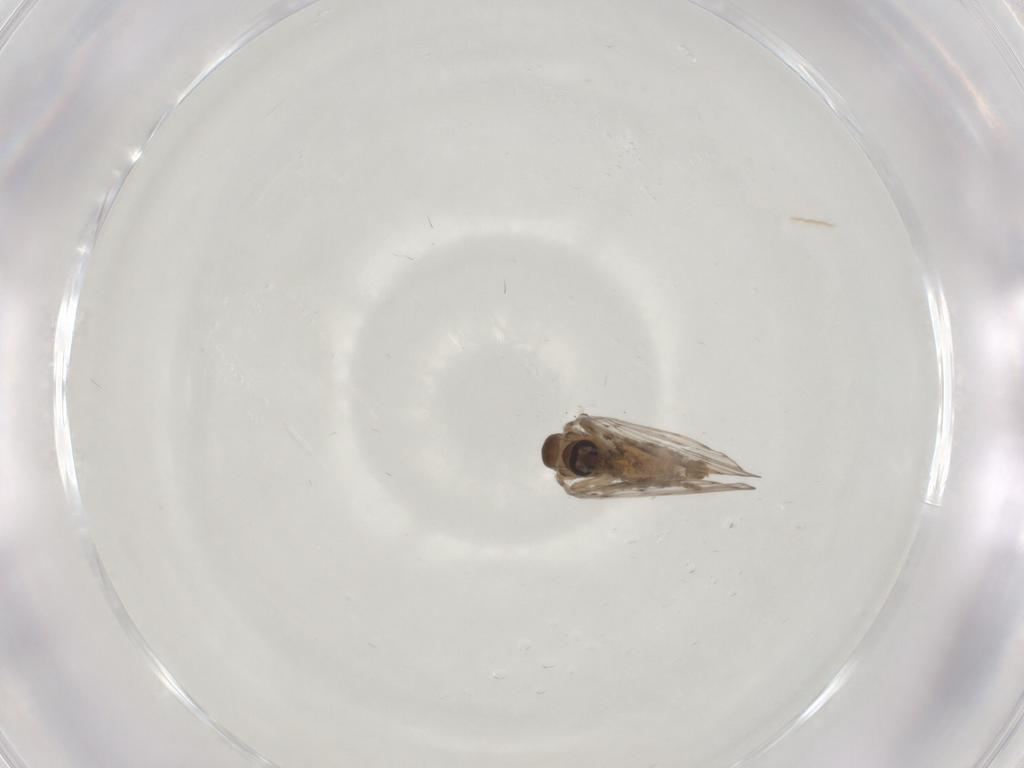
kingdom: Animalia
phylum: Arthropoda
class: Insecta
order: Diptera
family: Psychodidae
